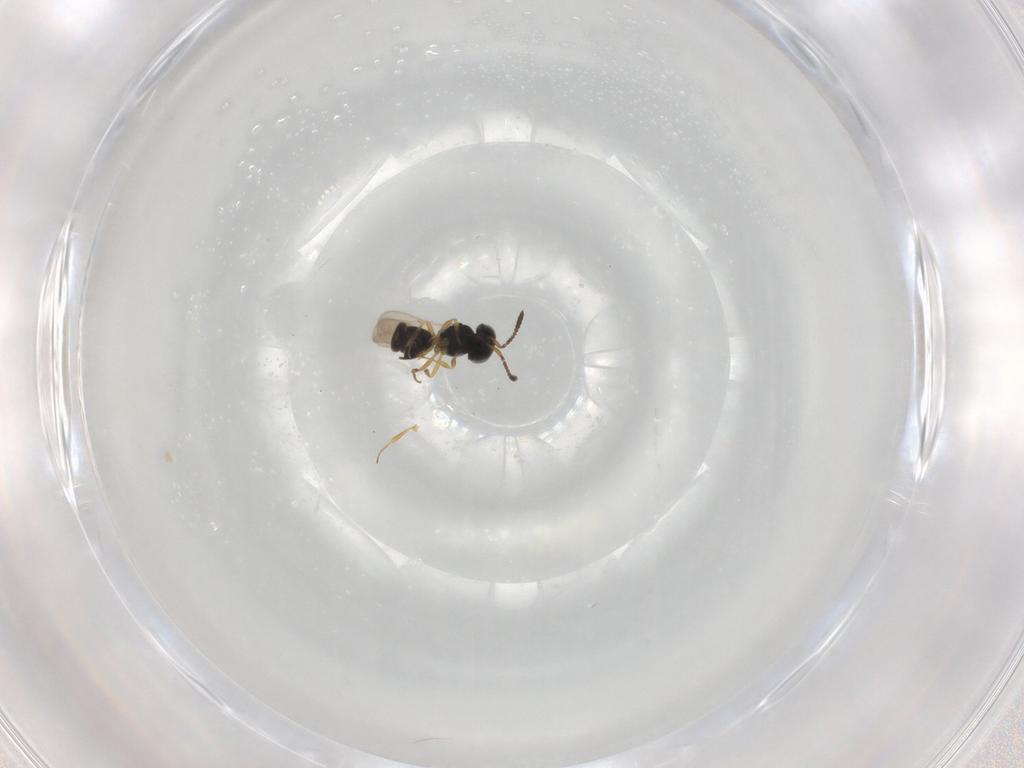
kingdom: Animalia
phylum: Arthropoda
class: Insecta
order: Hymenoptera
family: Scelionidae
